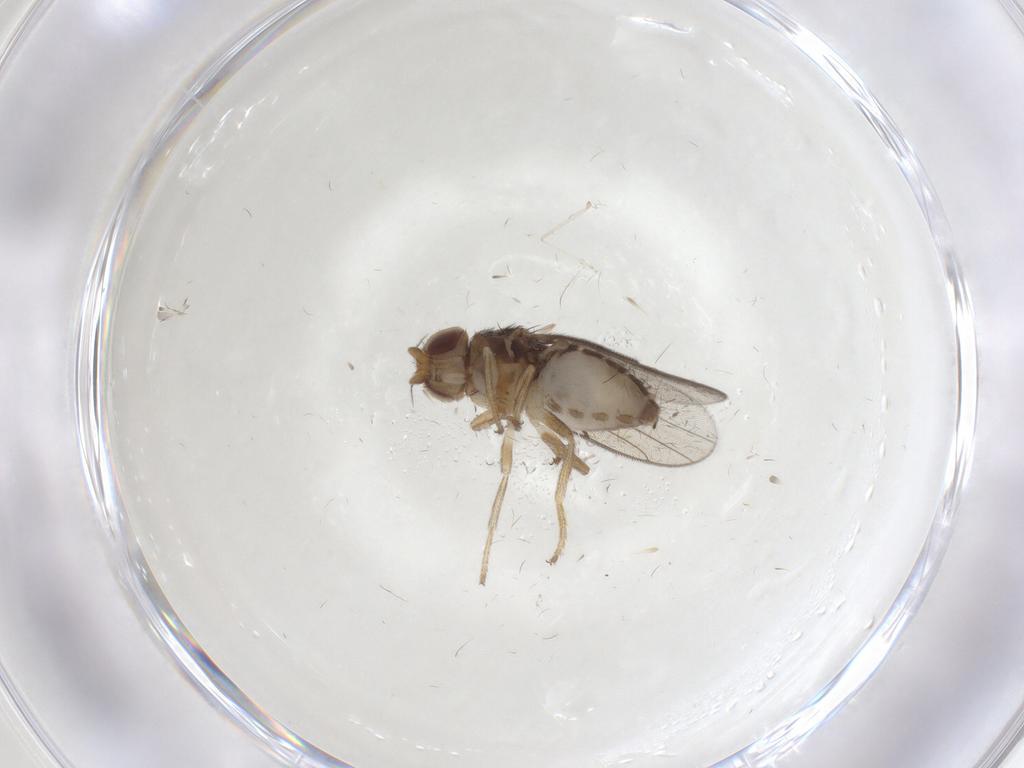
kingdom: Animalia
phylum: Arthropoda
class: Insecta
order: Diptera
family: Chloropidae
